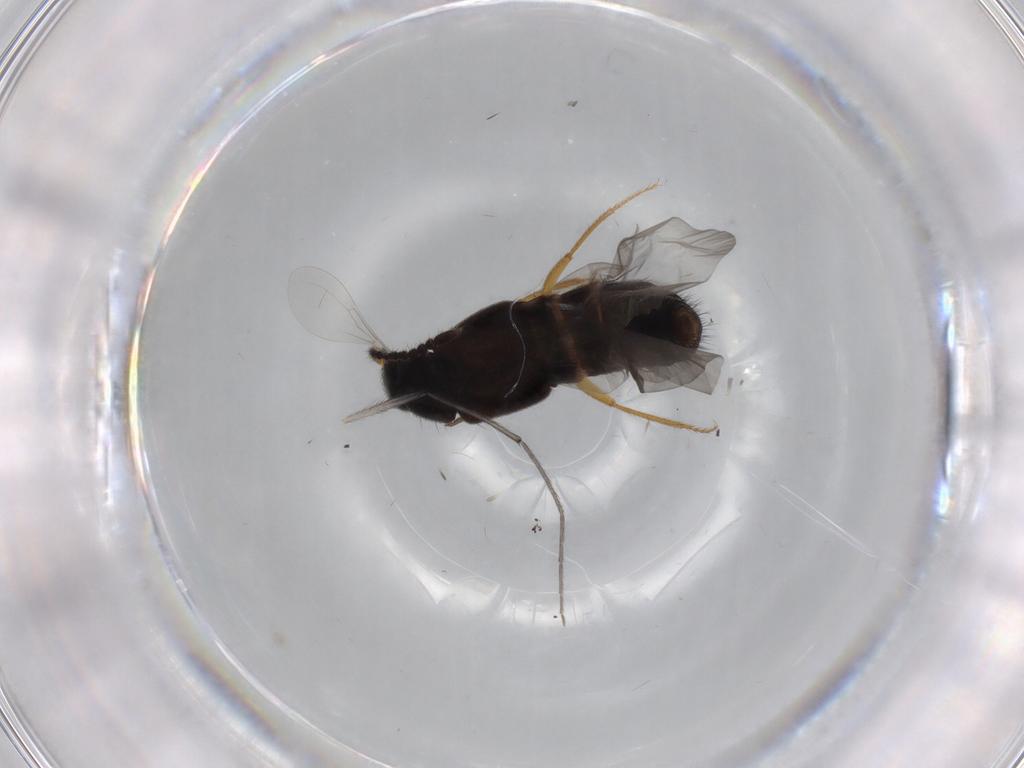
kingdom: Animalia
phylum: Arthropoda
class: Insecta
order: Coleoptera
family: Staphylinidae
